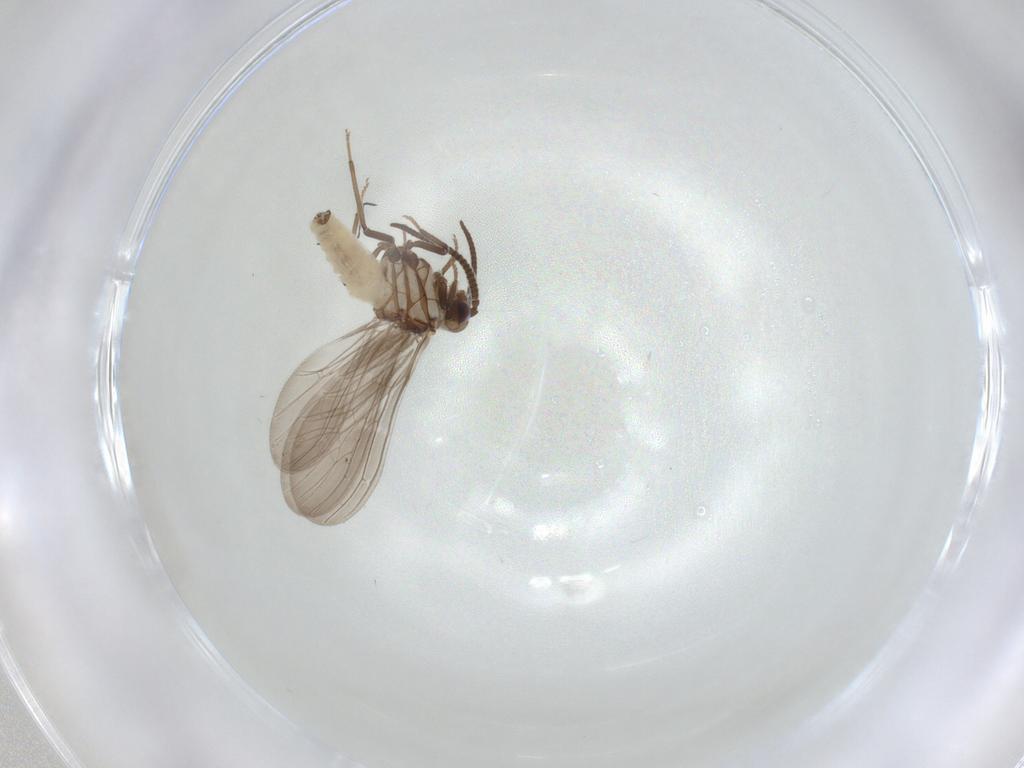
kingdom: Animalia
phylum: Arthropoda
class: Insecta
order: Neuroptera
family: Coniopterygidae
